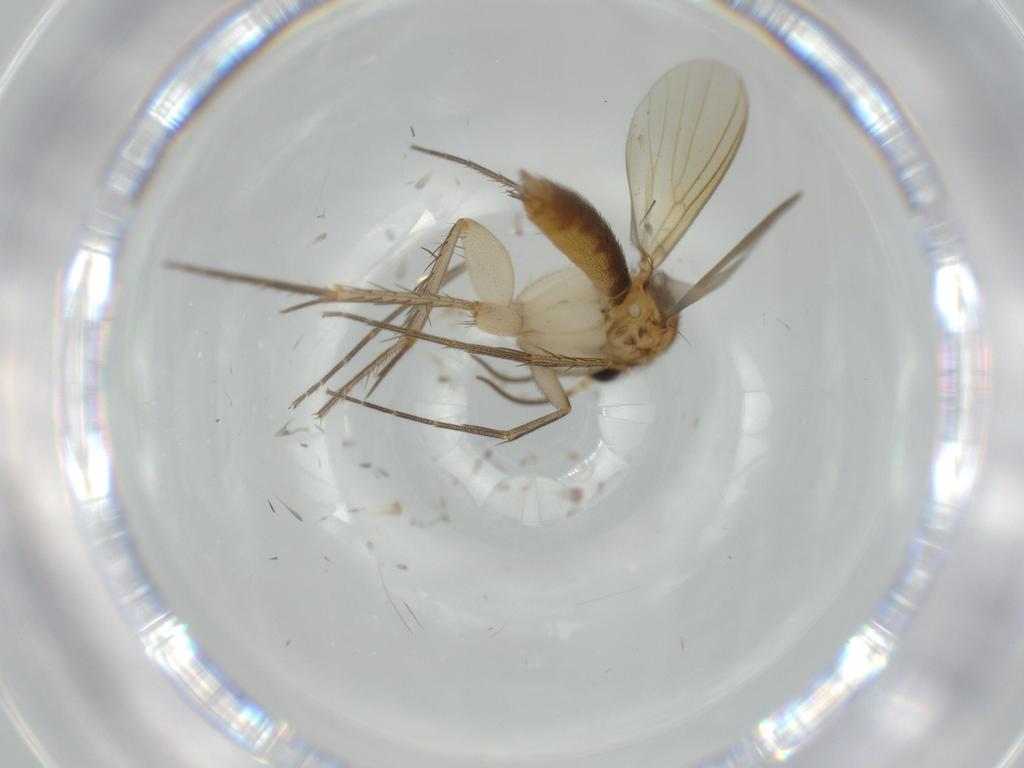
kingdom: Animalia
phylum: Arthropoda
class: Insecta
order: Diptera
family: Mycetophilidae
